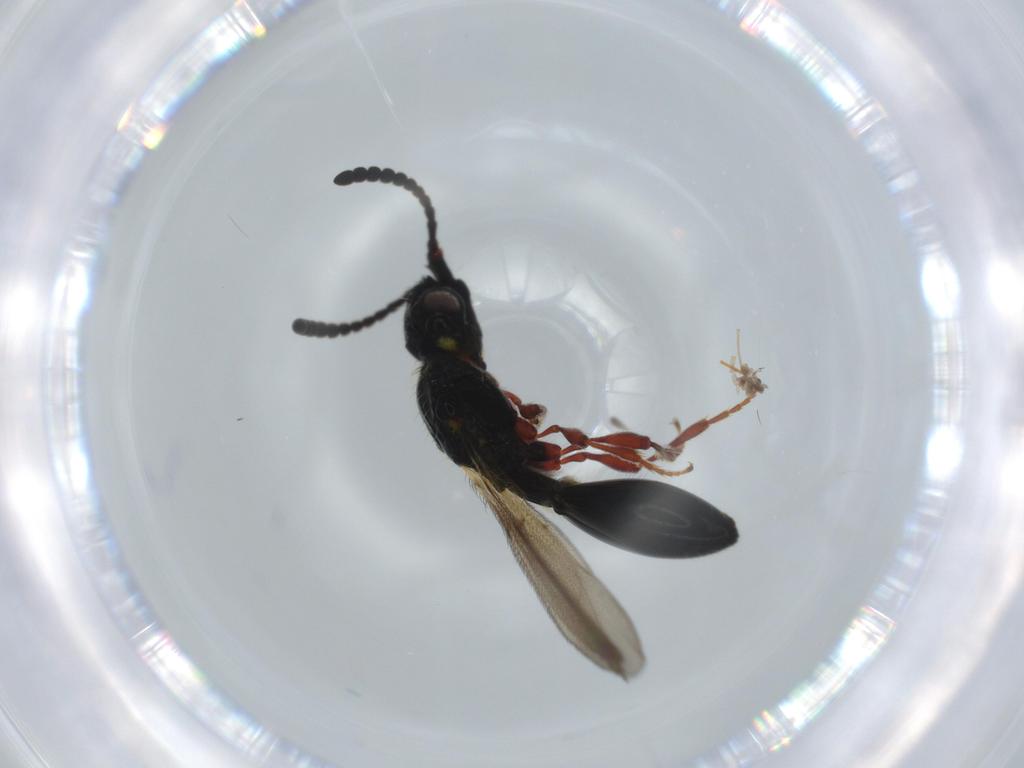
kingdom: Animalia
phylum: Arthropoda
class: Insecta
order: Hymenoptera
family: Diapriidae
